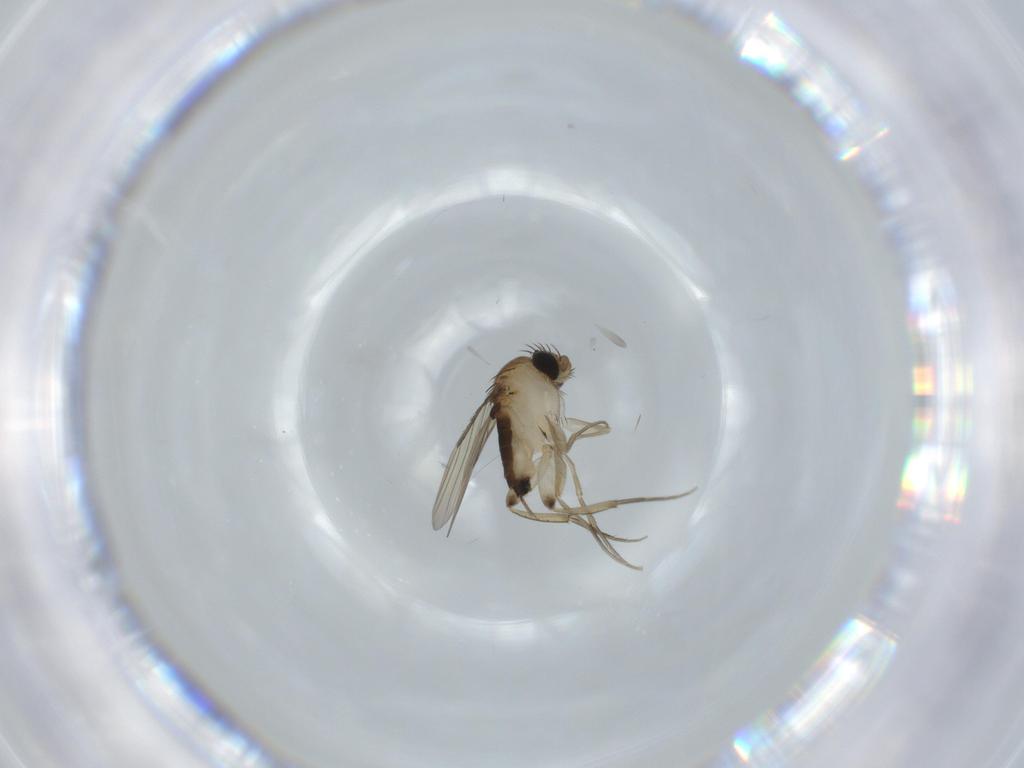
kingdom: Animalia
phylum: Arthropoda
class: Insecta
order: Diptera
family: Phoridae
